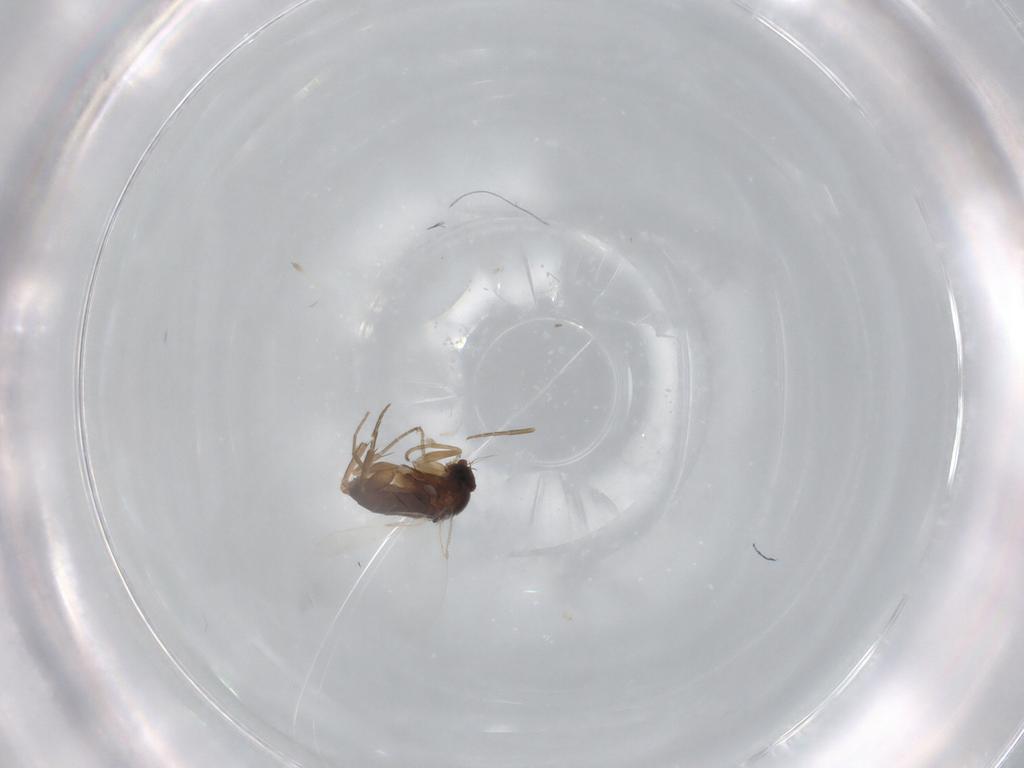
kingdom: Animalia
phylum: Arthropoda
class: Insecta
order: Diptera
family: Phoridae
